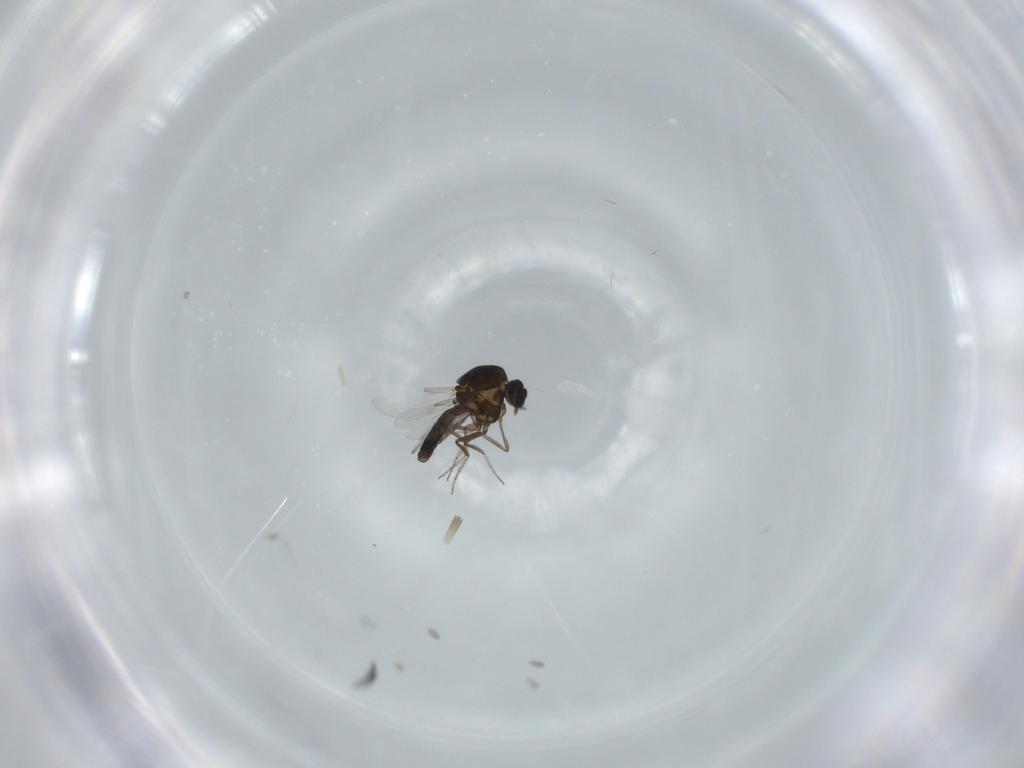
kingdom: Animalia
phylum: Arthropoda
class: Insecta
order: Diptera
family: Ceratopogonidae
